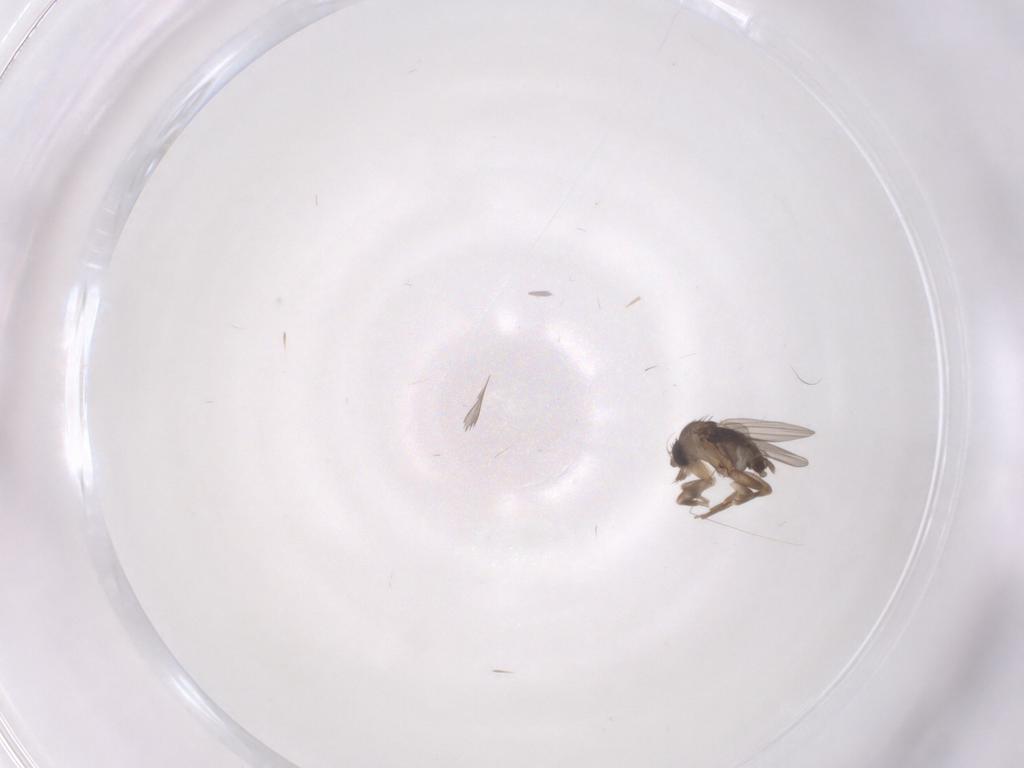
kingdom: Animalia
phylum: Arthropoda
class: Insecta
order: Diptera
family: Phoridae
